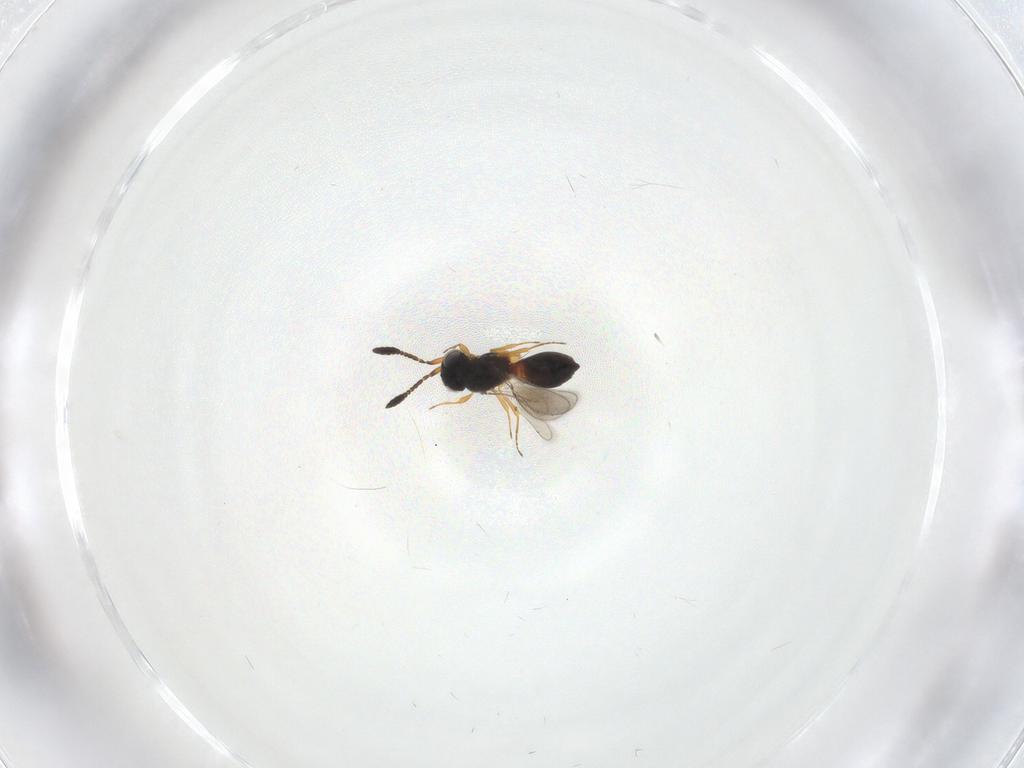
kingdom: Animalia
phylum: Arthropoda
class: Insecta
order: Hymenoptera
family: Scelionidae
